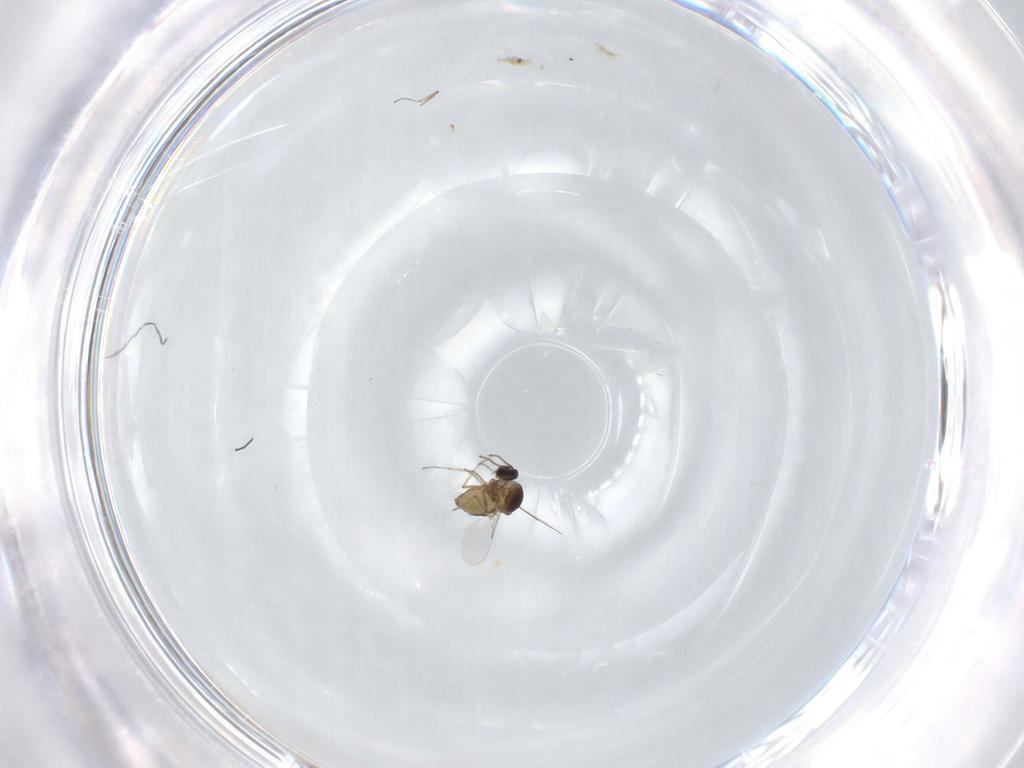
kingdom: Animalia
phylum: Arthropoda
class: Insecta
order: Diptera
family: Ceratopogonidae
